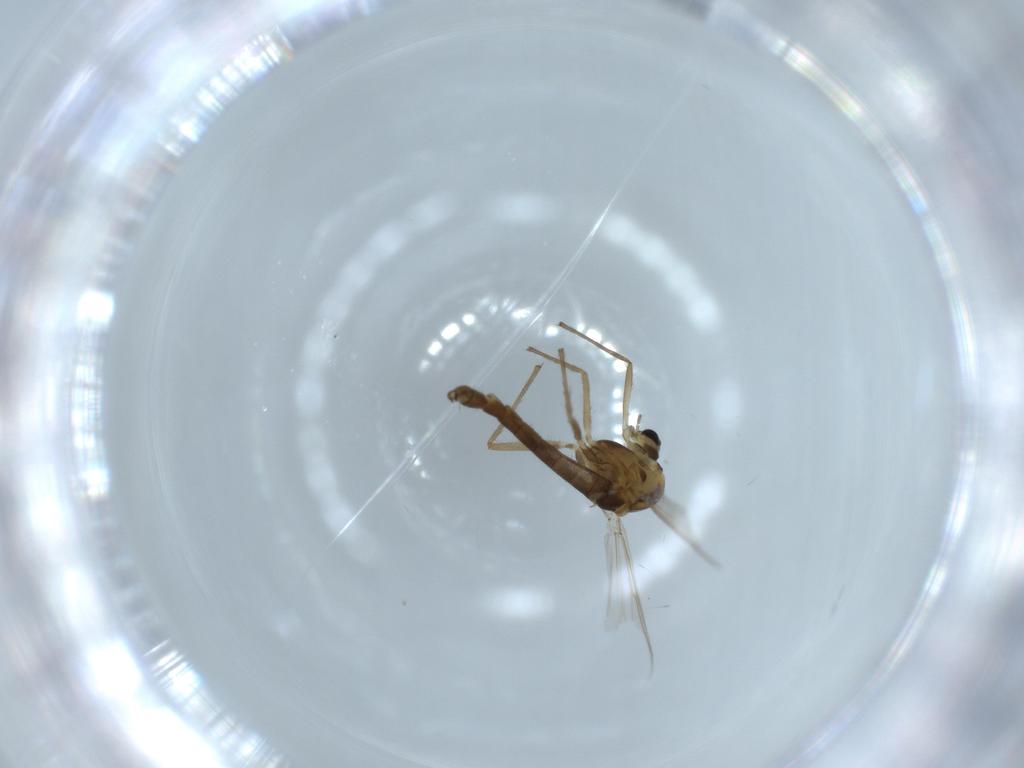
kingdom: Animalia
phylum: Arthropoda
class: Insecta
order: Diptera
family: Chironomidae
